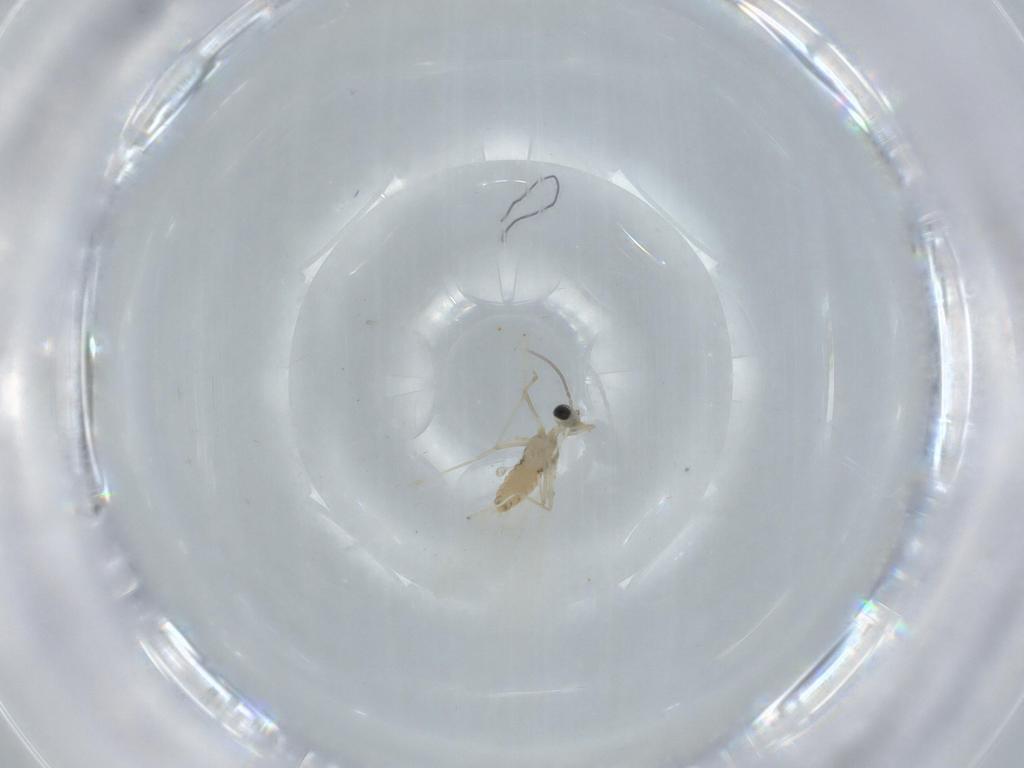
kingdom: Animalia
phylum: Arthropoda
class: Insecta
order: Diptera
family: Cecidomyiidae
